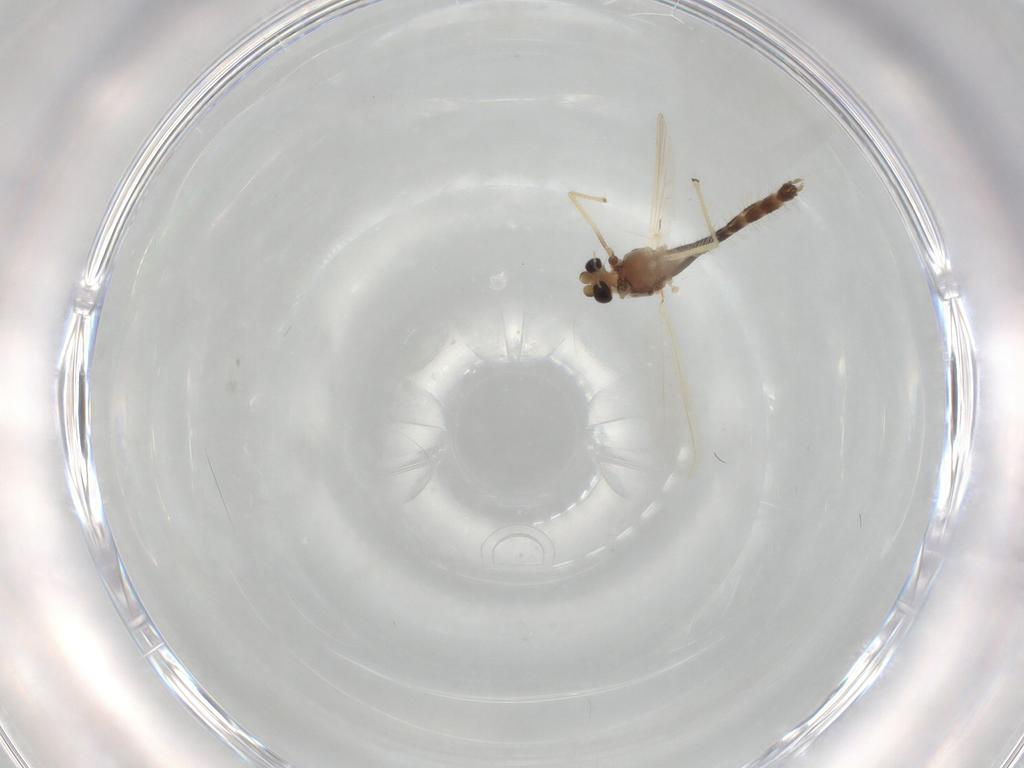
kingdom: Animalia
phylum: Arthropoda
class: Insecta
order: Diptera
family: Chironomidae
